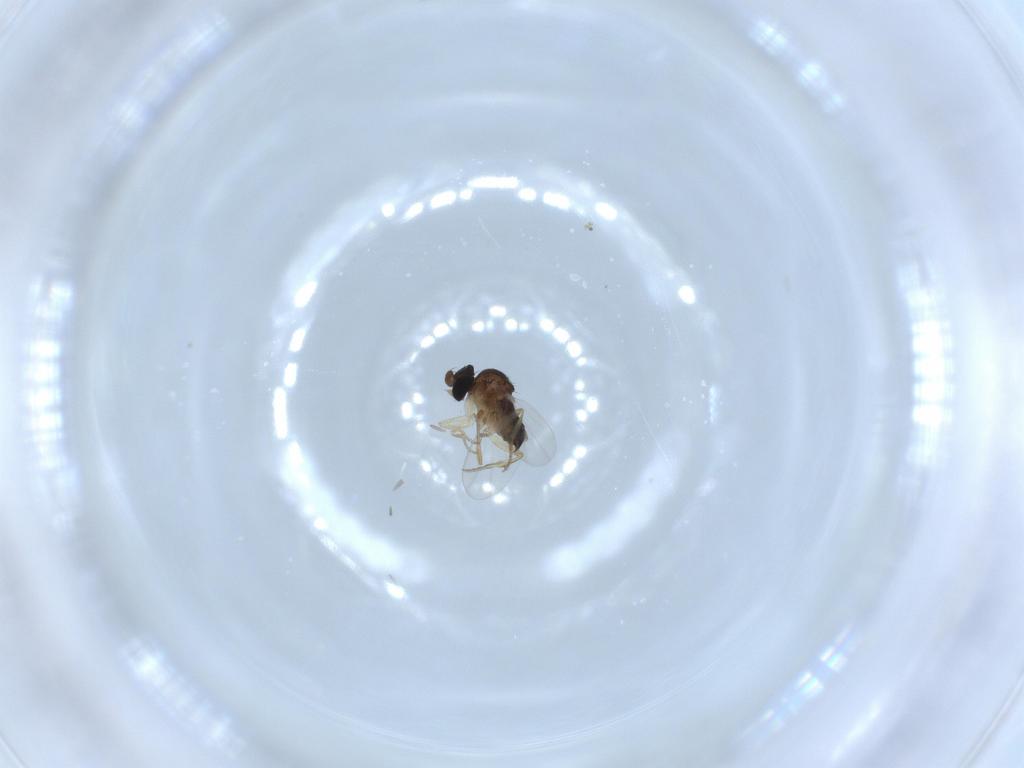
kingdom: Animalia
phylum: Arthropoda
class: Insecta
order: Diptera
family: Phoridae
